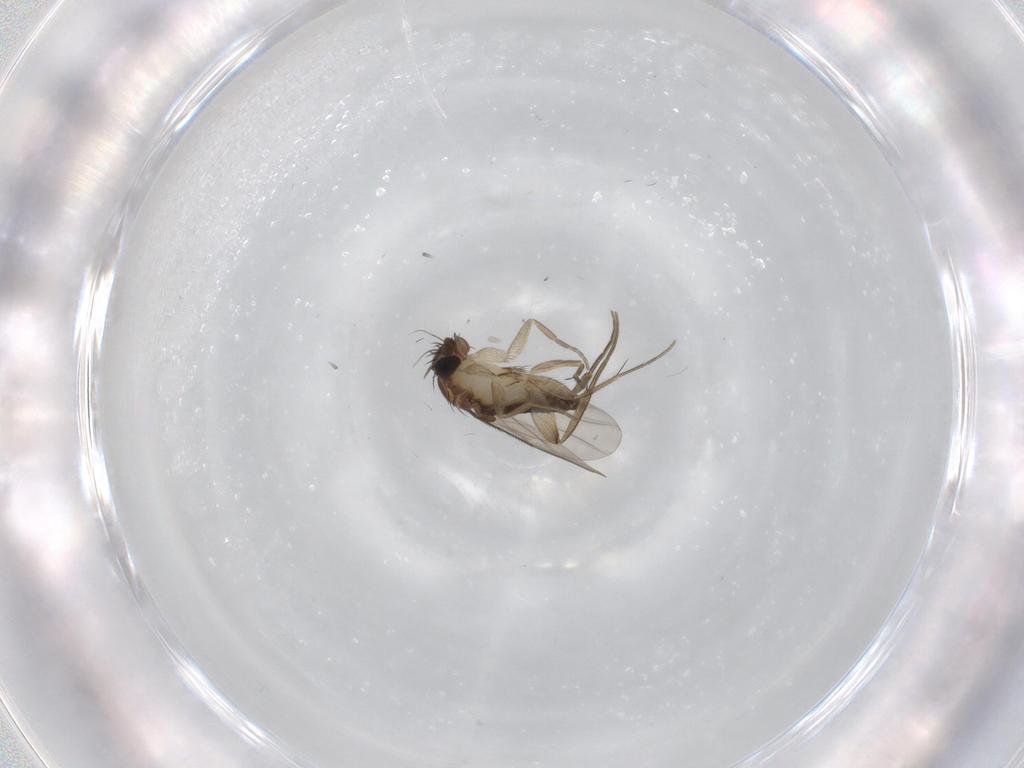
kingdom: Animalia
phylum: Arthropoda
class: Insecta
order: Diptera
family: Phoridae
